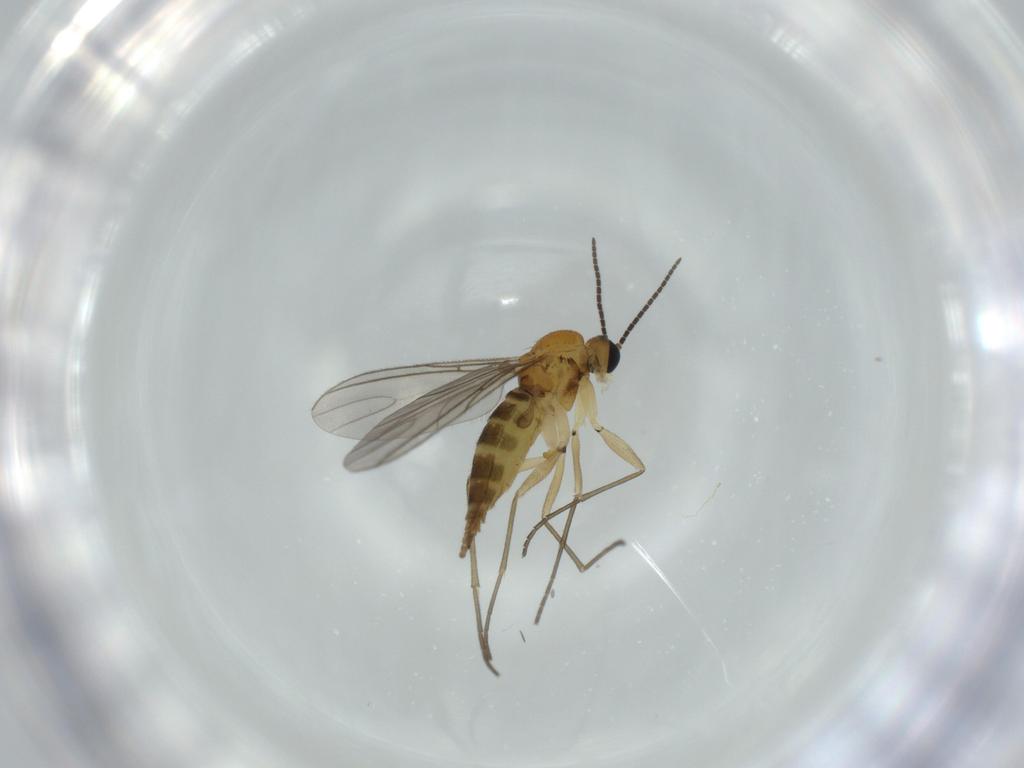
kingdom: Animalia
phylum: Arthropoda
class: Insecta
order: Diptera
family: Sciaridae
